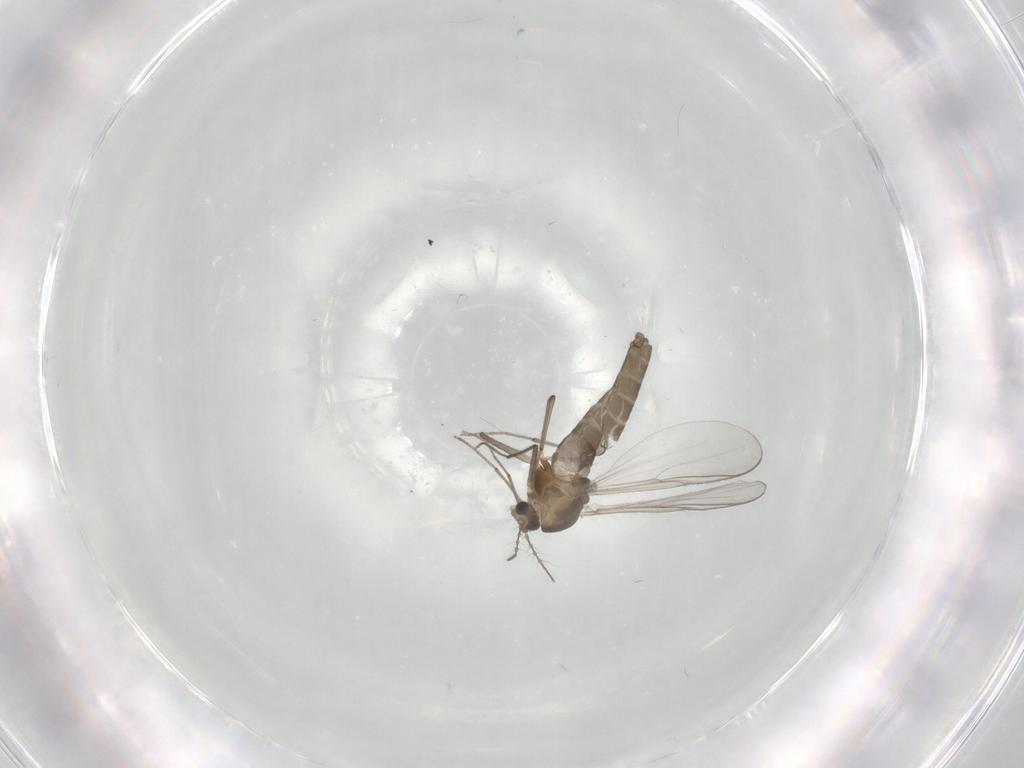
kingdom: Animalia
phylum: Arthropoda
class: Insecta
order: Diptera
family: Chironomidae
